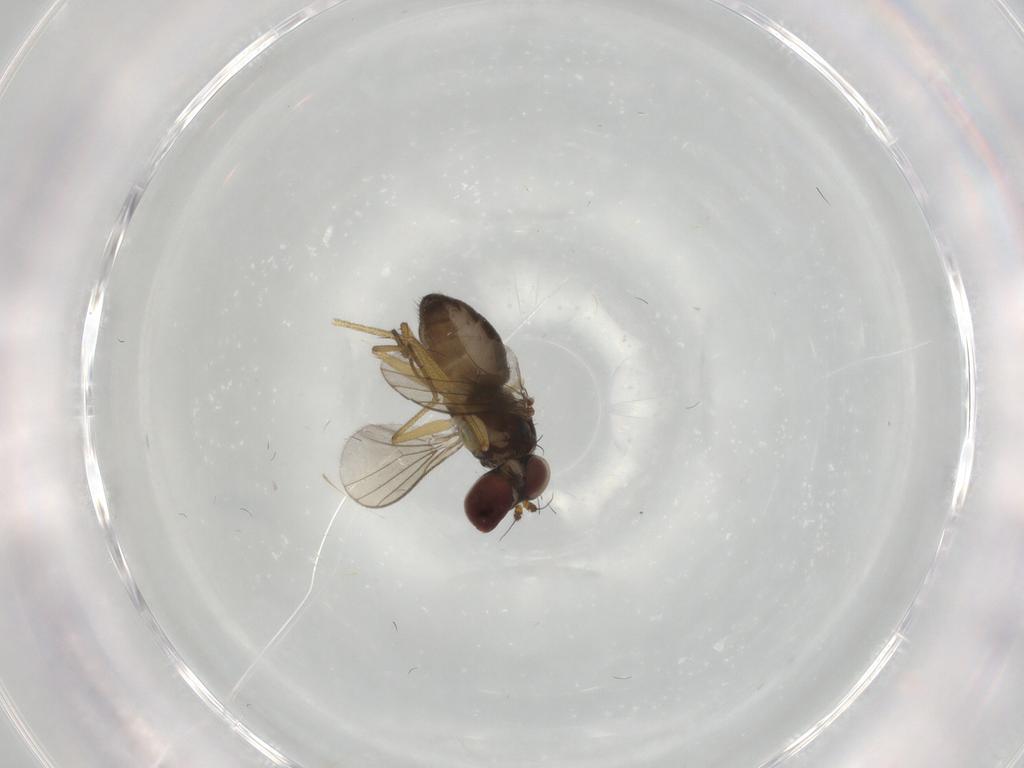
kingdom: Animalia
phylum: Arthropoda
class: Insecta
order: Diptera
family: Dolichopodidae
